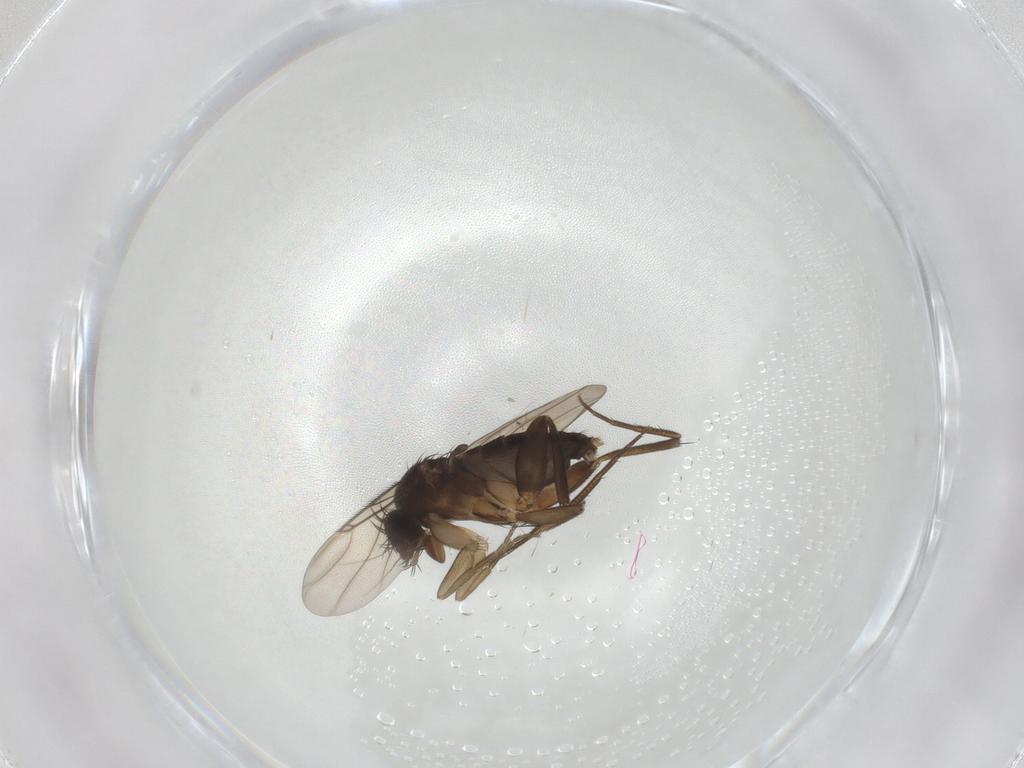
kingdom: Animalia
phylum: Arthropoda
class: Insecta
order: Diptera
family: Phoridae
